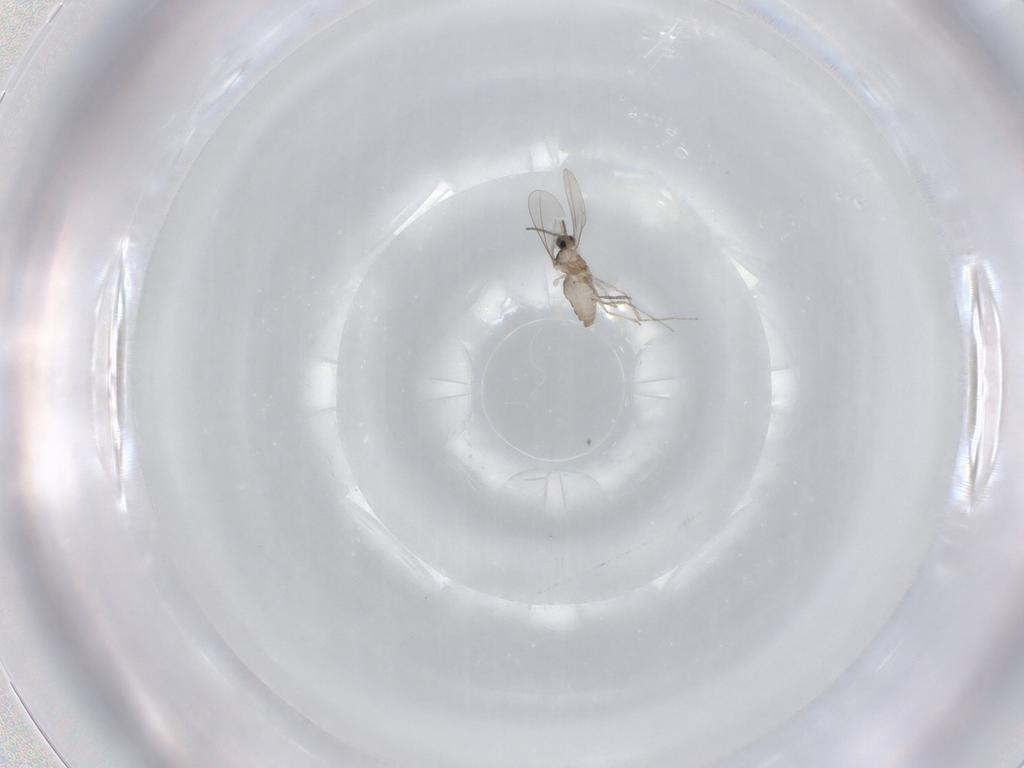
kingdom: Animalia
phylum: Arthropoda
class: Insecta
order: Diptera
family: Cecidomyiidae
